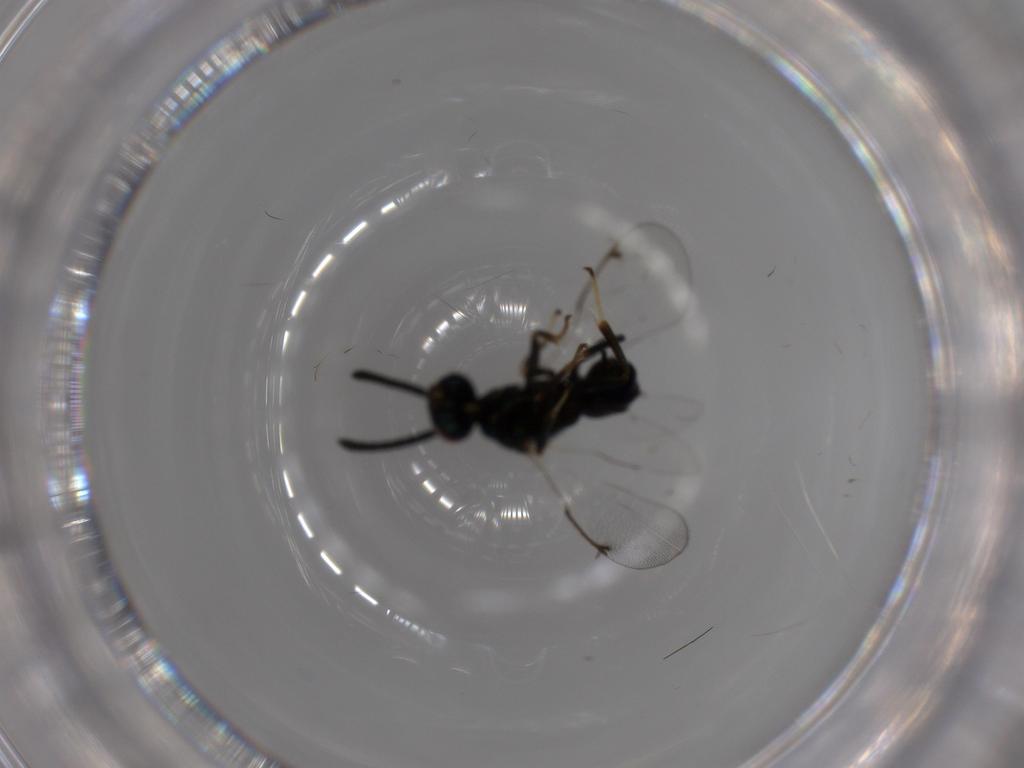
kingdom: Animalia
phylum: Arthropoda
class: Insecta
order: Hymenoptera
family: Torymidae
